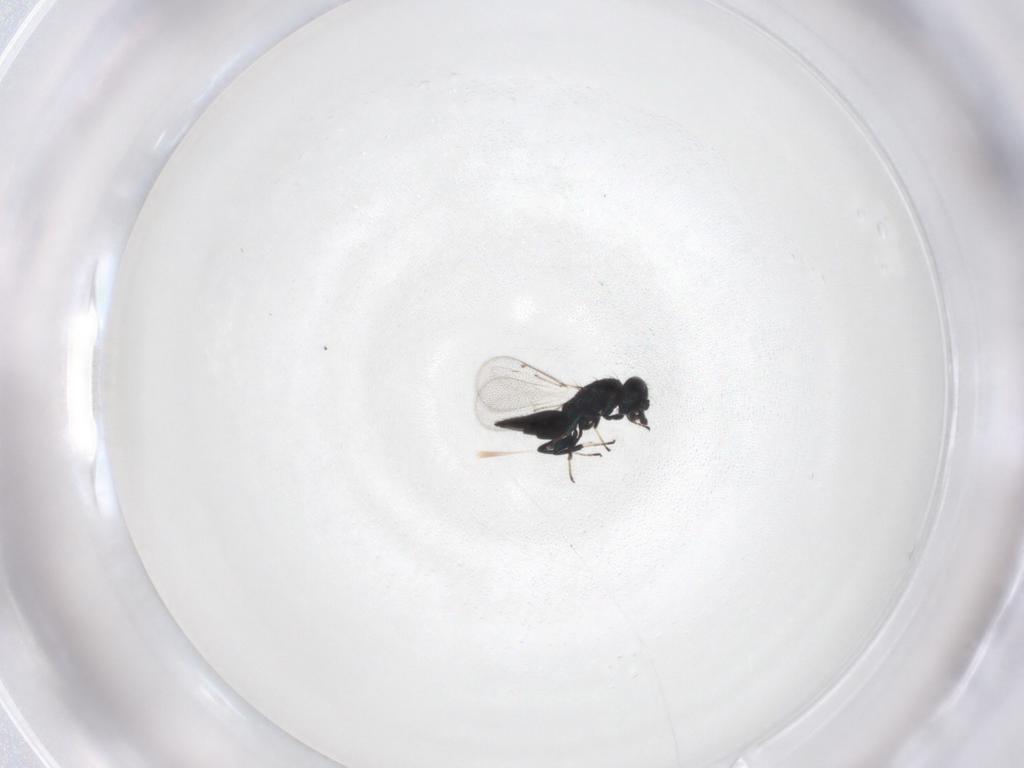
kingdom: Animalia
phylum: Arthropoda
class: Insecta
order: Hymenoptera
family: Eulophidae
